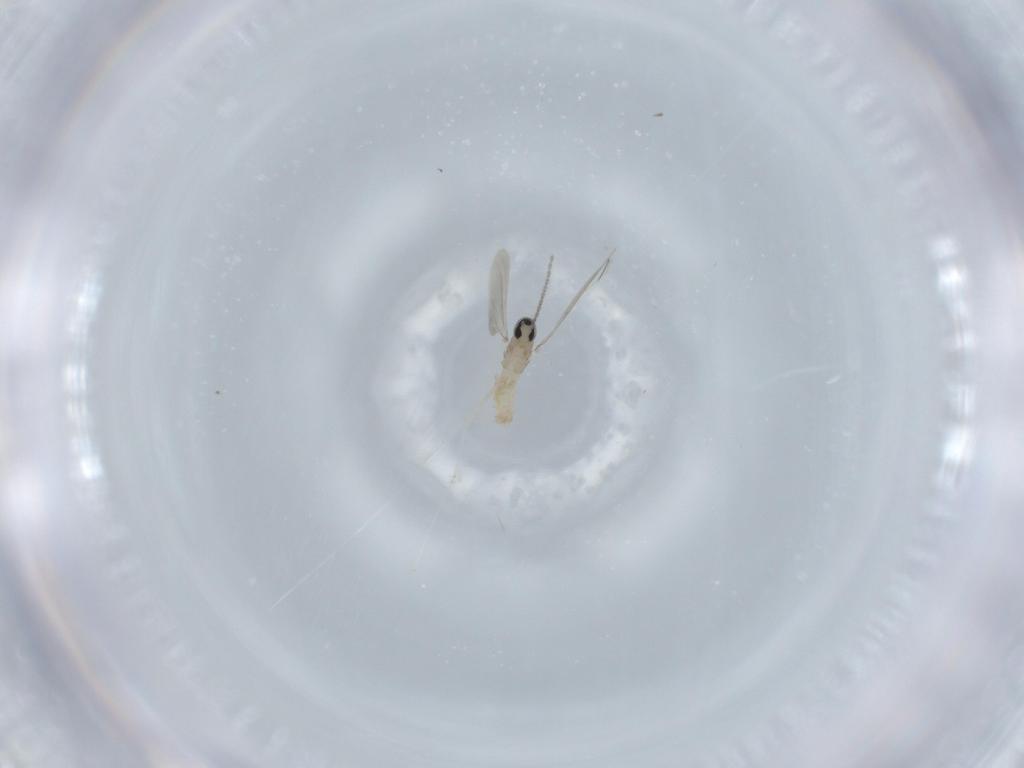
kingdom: Animalia
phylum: Arthropoda
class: Insecta
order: Diptera
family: Cecidomyiidae
